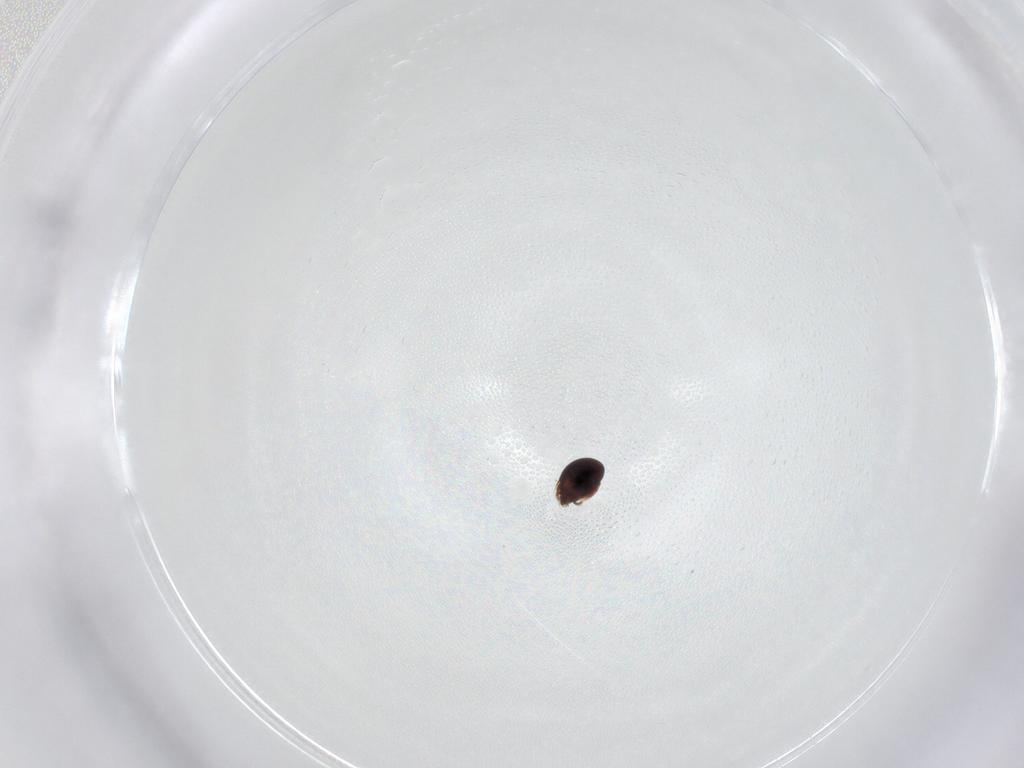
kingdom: Animalia
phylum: Arthropoda
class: Arachnida
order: Sarcoptiformes
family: Achipteriidae
